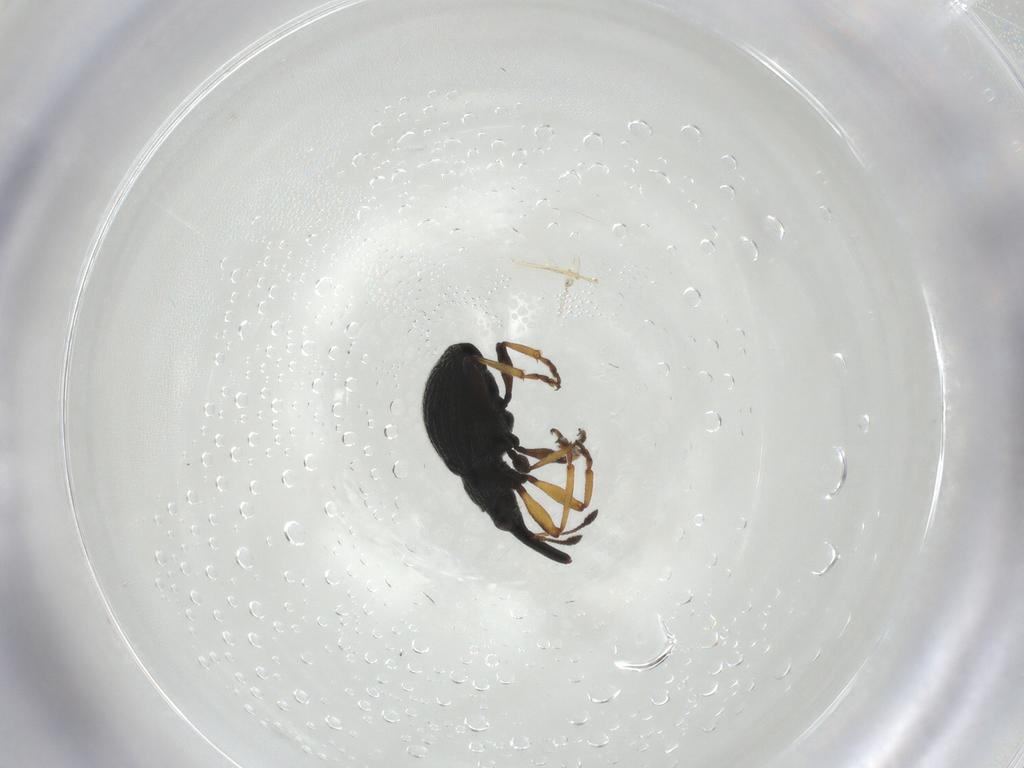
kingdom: Animalia
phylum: Arthropoda
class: Insecta
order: Coleoptera
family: Brentidae
